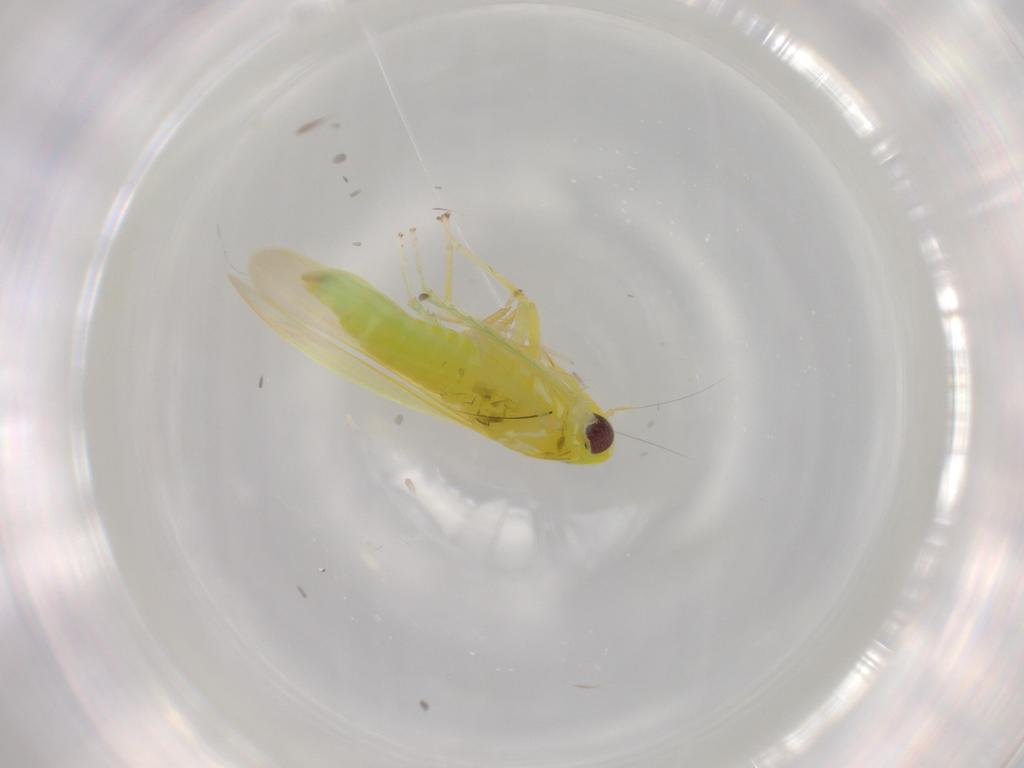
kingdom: Animalia
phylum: Arthropoda
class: Insecta
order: Hemiptera
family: Cicadellidae
